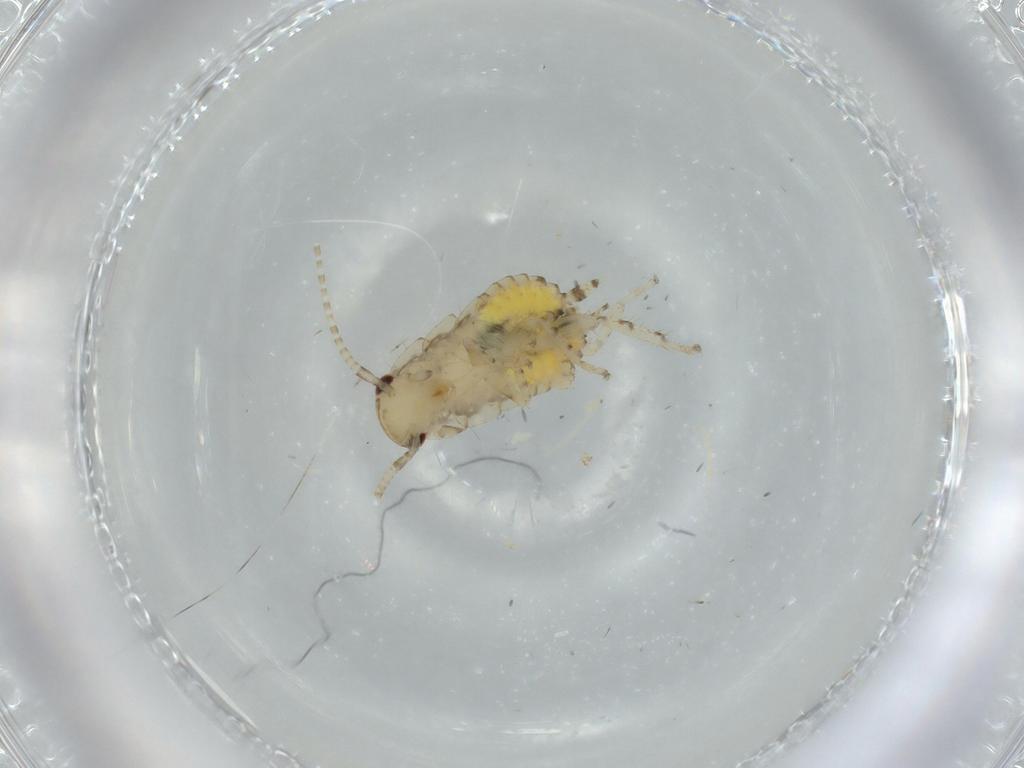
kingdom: Animalia
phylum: Arthropoda
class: Insecta
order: Blattodea
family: Ectobiidae
